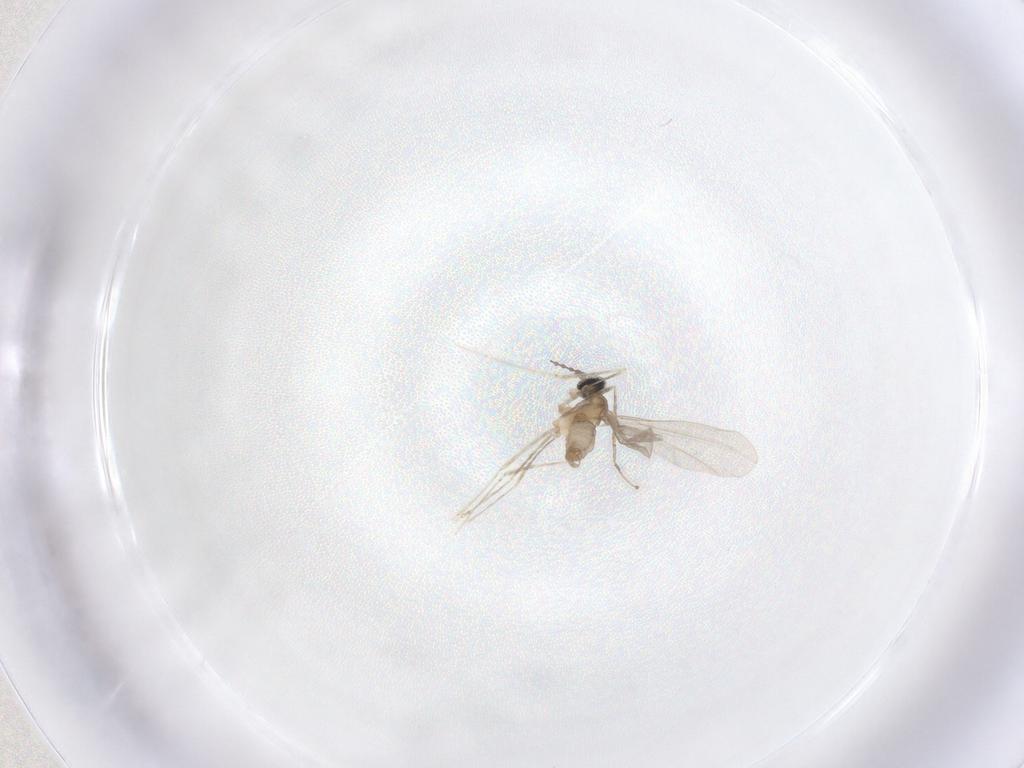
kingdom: Animalia
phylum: Arthropoda
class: Insecta
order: Diptera
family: Cecidomyiidae
